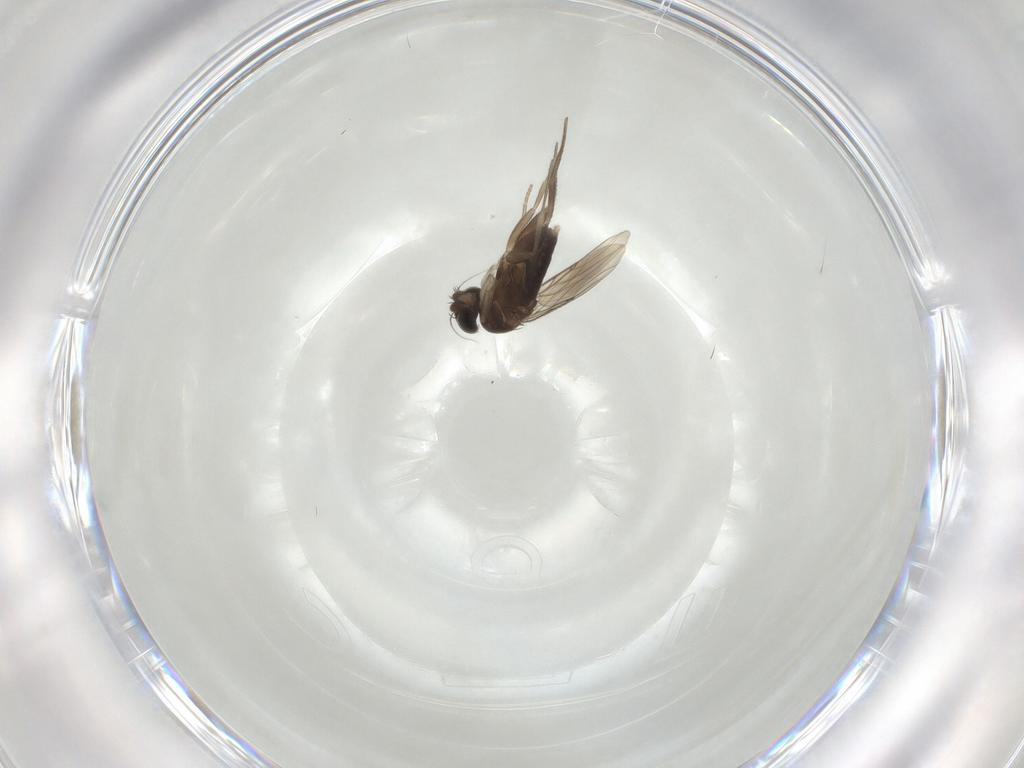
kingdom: Animalia
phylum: Arthropoda
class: Insecta
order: Diptera
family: Phoridae
